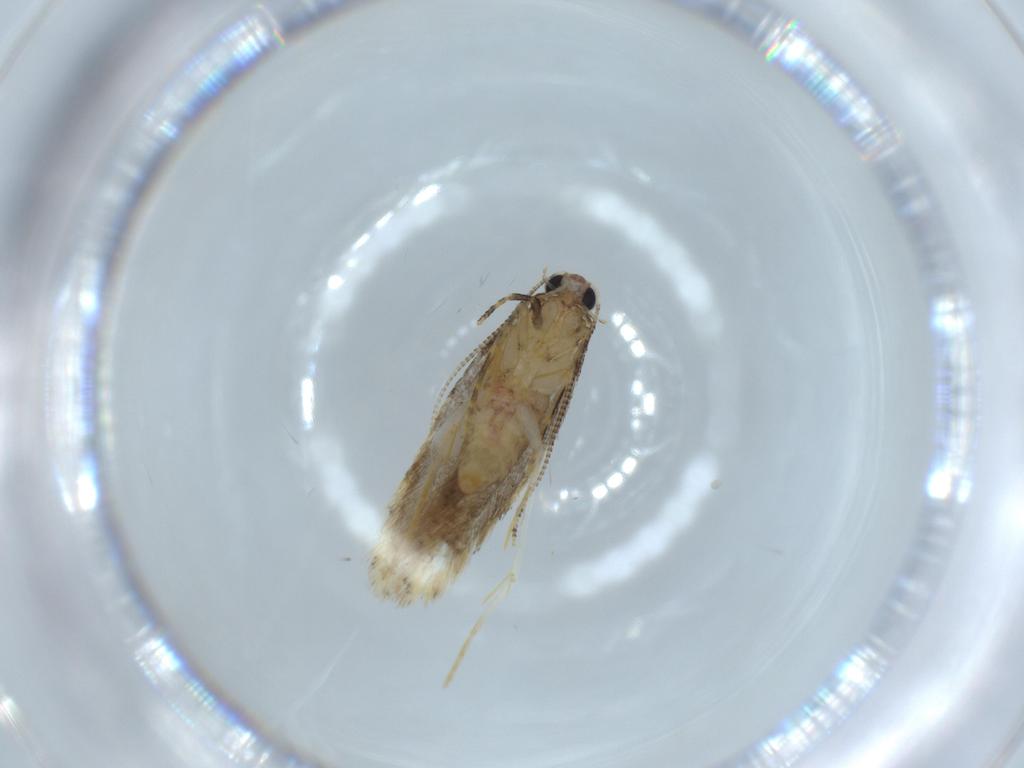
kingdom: Animalia
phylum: Arthropoda
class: Insecta
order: Lepidoptera
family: Tineidae
